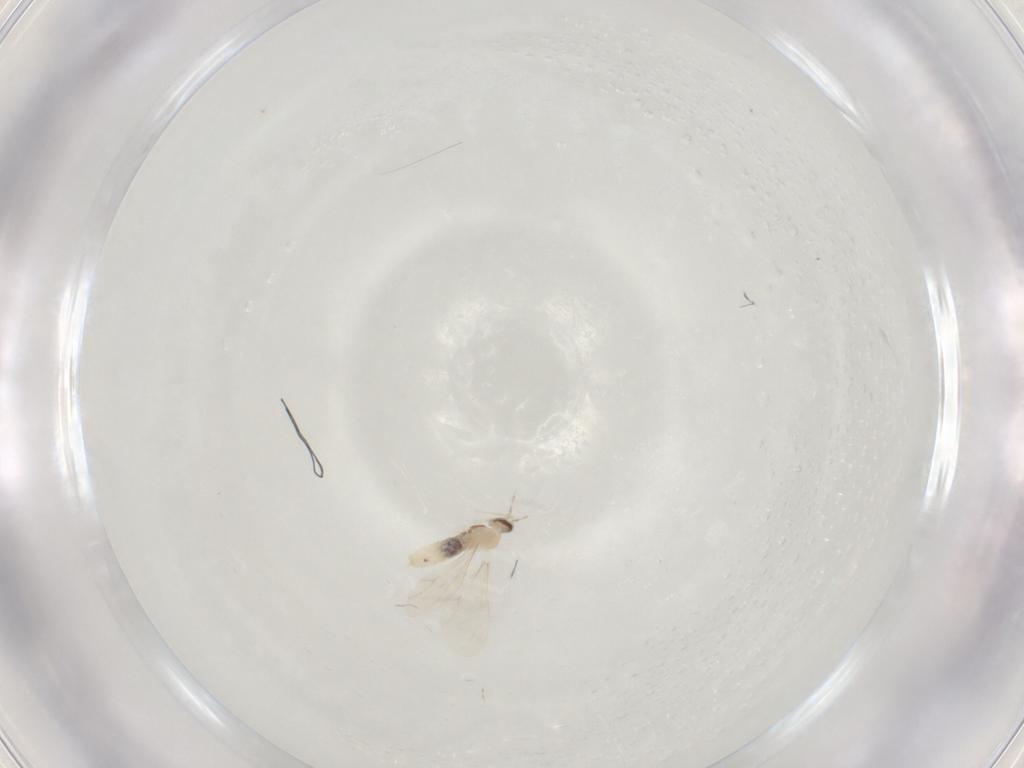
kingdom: Animalia
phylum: Arthropoda
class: Insecta
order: Diptera
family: Cecidomyiidae
